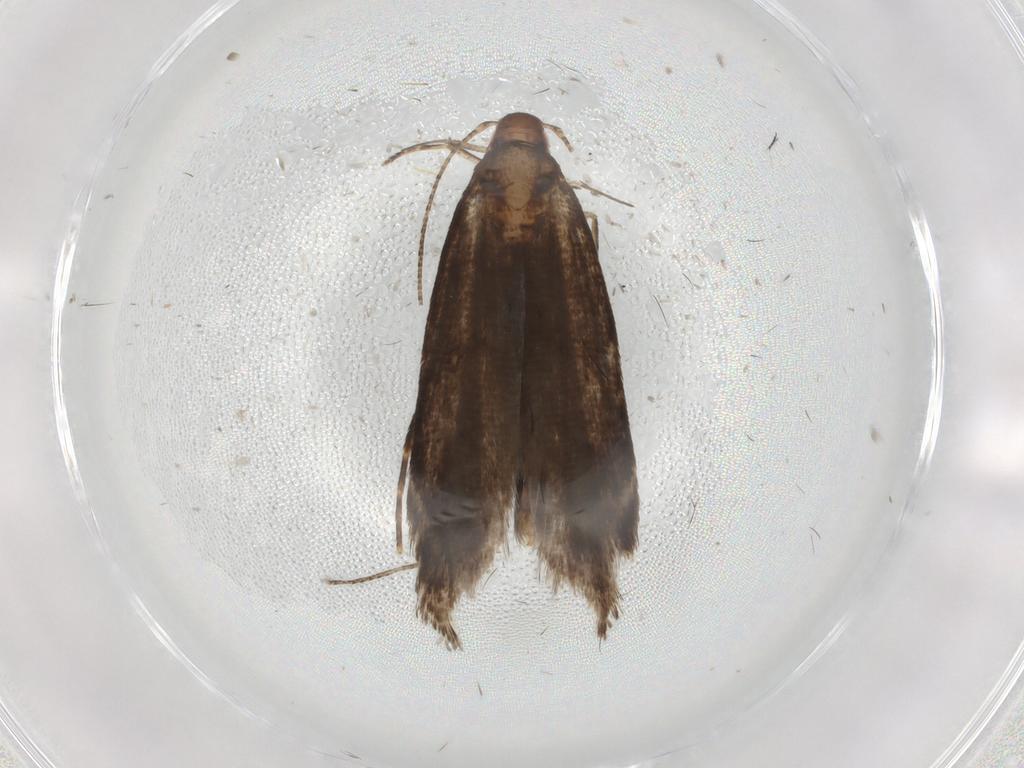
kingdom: Animalia
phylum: Arthropoda
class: Insecta
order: Lepidoptera
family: Gelechiidae
